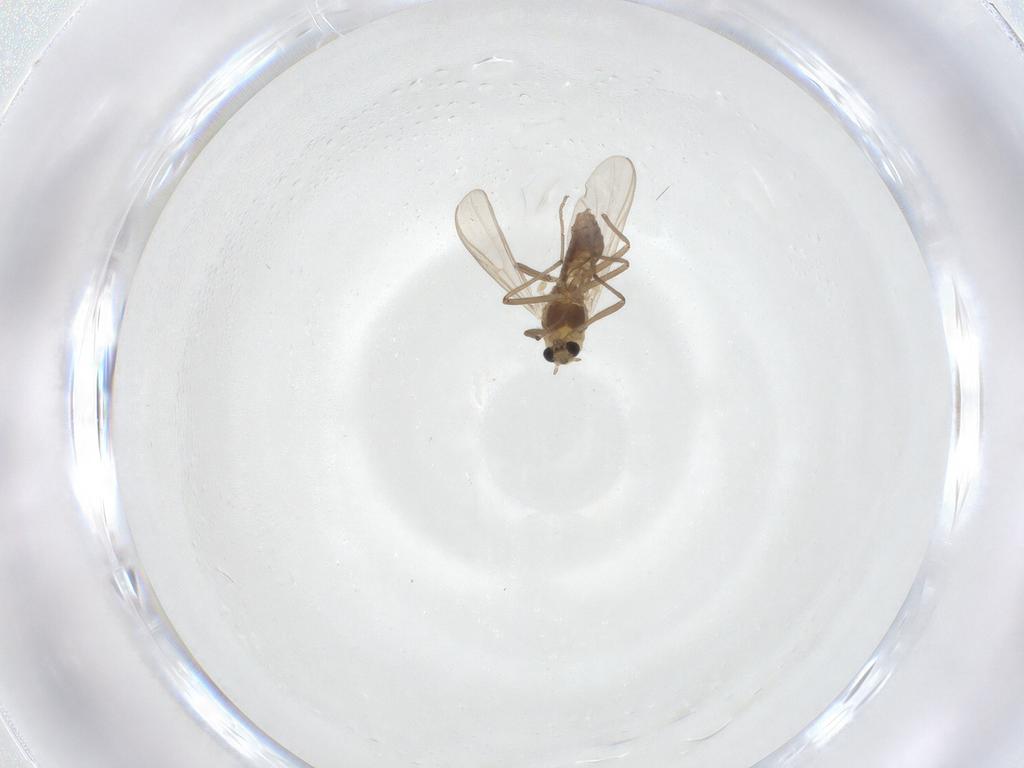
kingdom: Animalia
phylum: Arthropoda
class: Insecta
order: Diptera
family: Chironomidae
